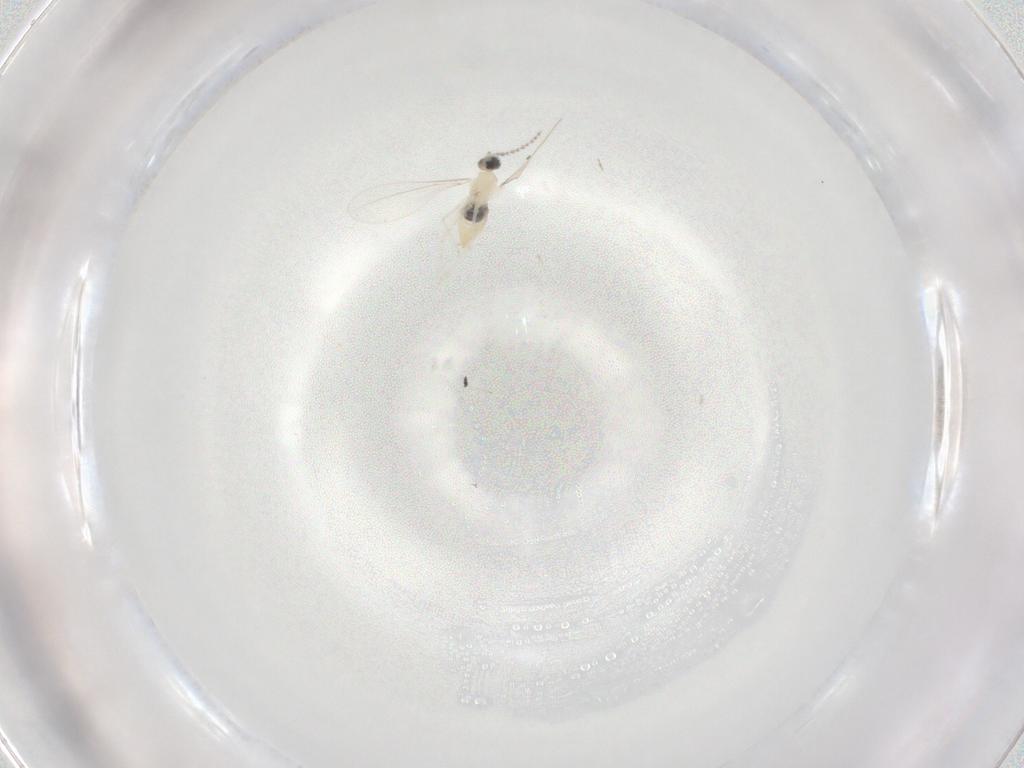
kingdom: Animalia
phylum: Arthropoda
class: Insecta
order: Diptera
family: Cecidomyiidae
